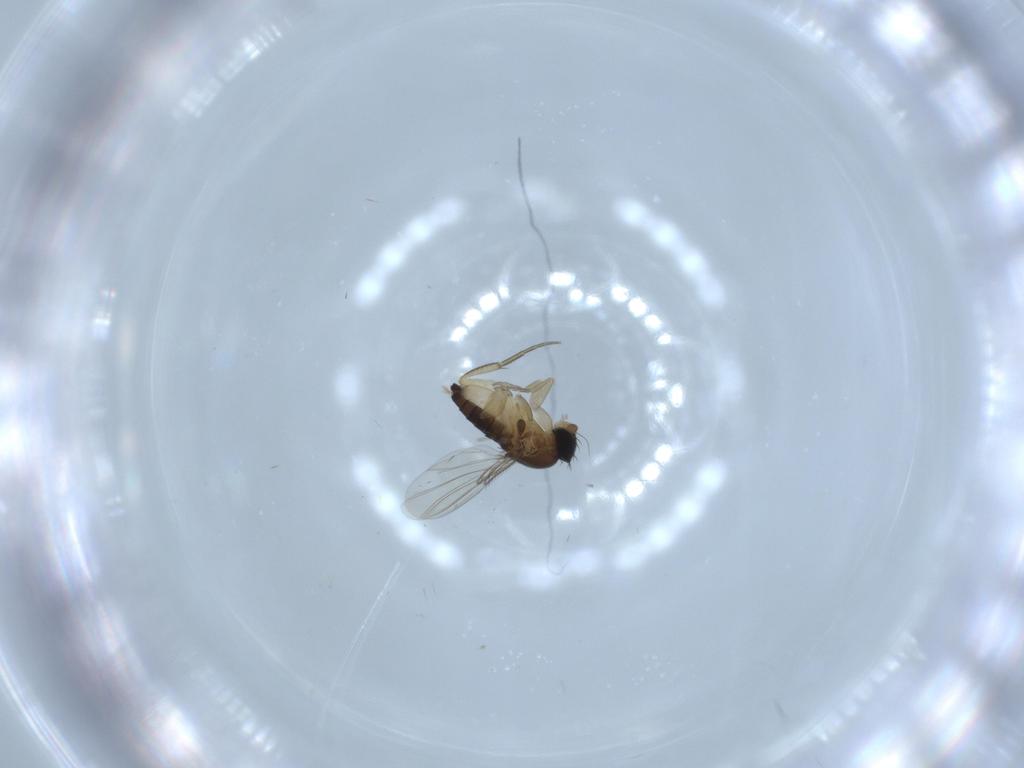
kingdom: Animalia
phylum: Arthropoda
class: Insecta
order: Diptera
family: Phoridae
